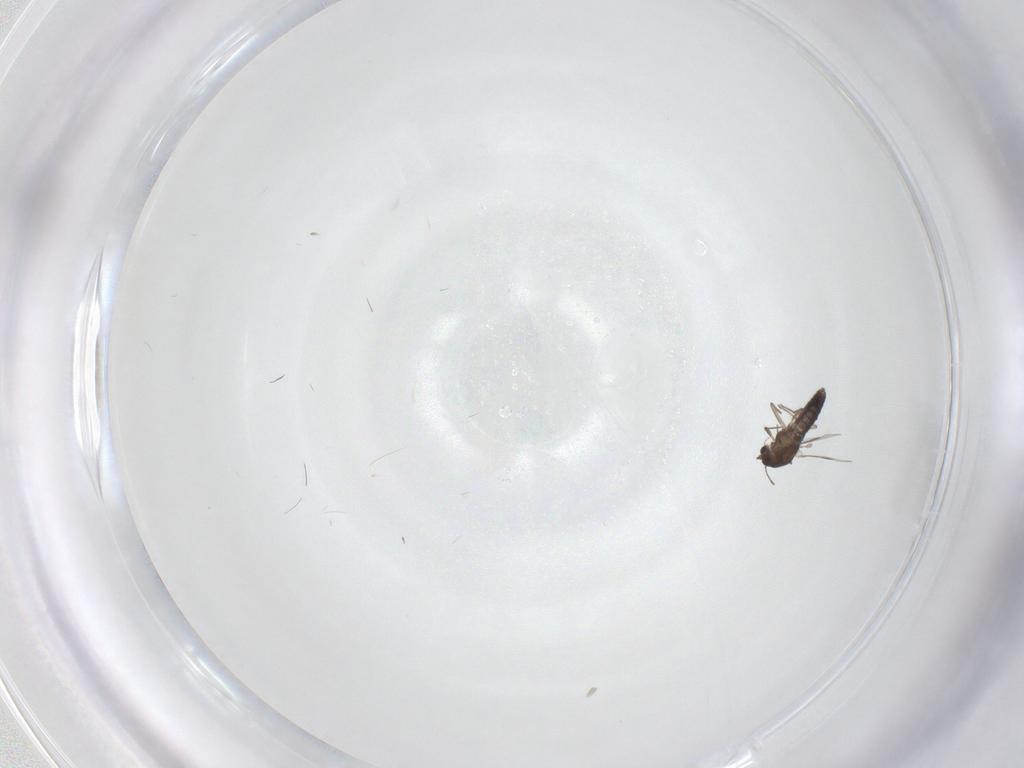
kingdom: Animalia
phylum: Arthropoda
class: Insecta
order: Diptera
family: Chironomidae
